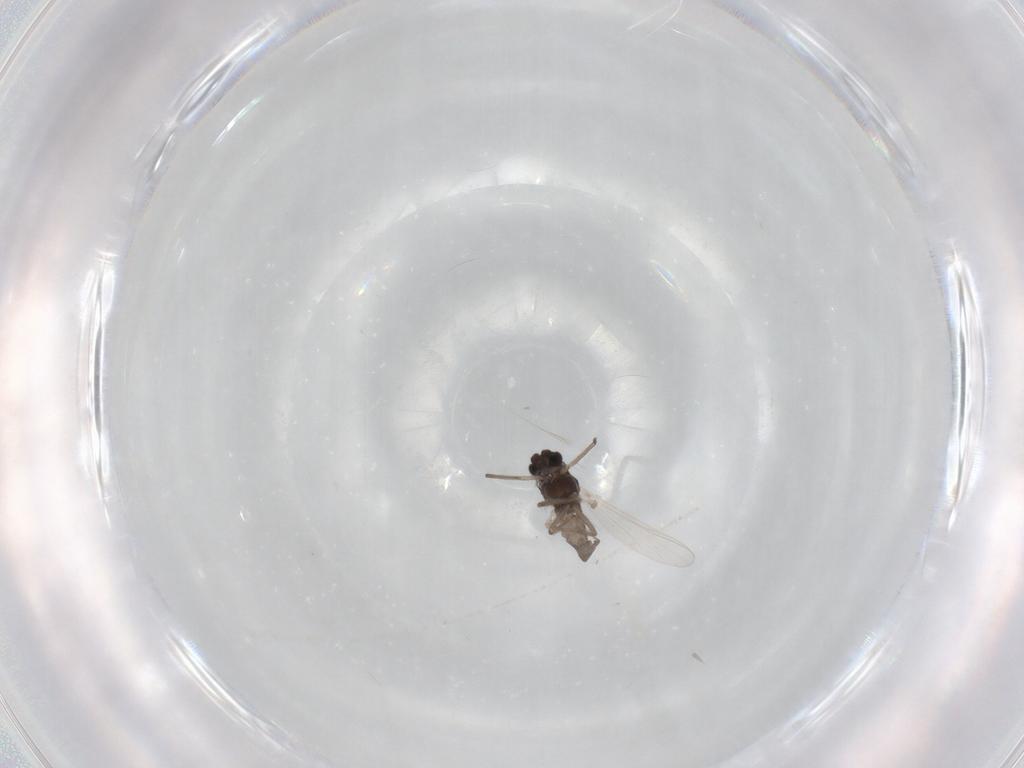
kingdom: Animalia
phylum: Arthropoda
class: Insecta
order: Diptera
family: Chironomidae
